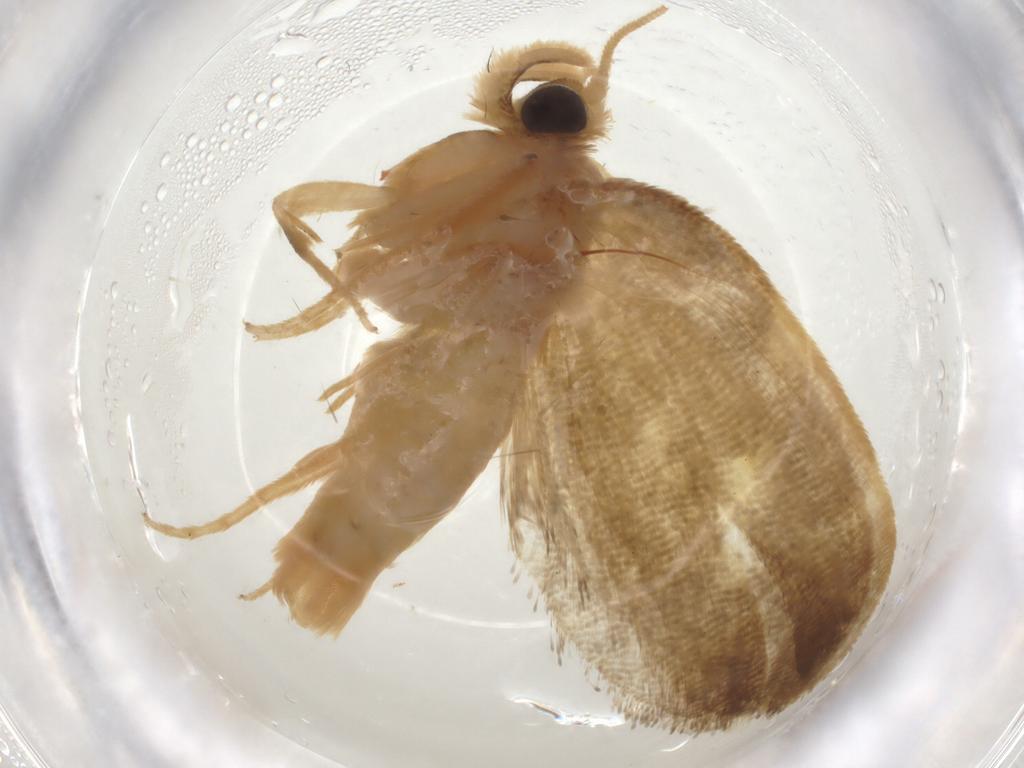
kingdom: Animalia
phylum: Arthropoda
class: Insecta
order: Lepidoptera
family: Psychidae
